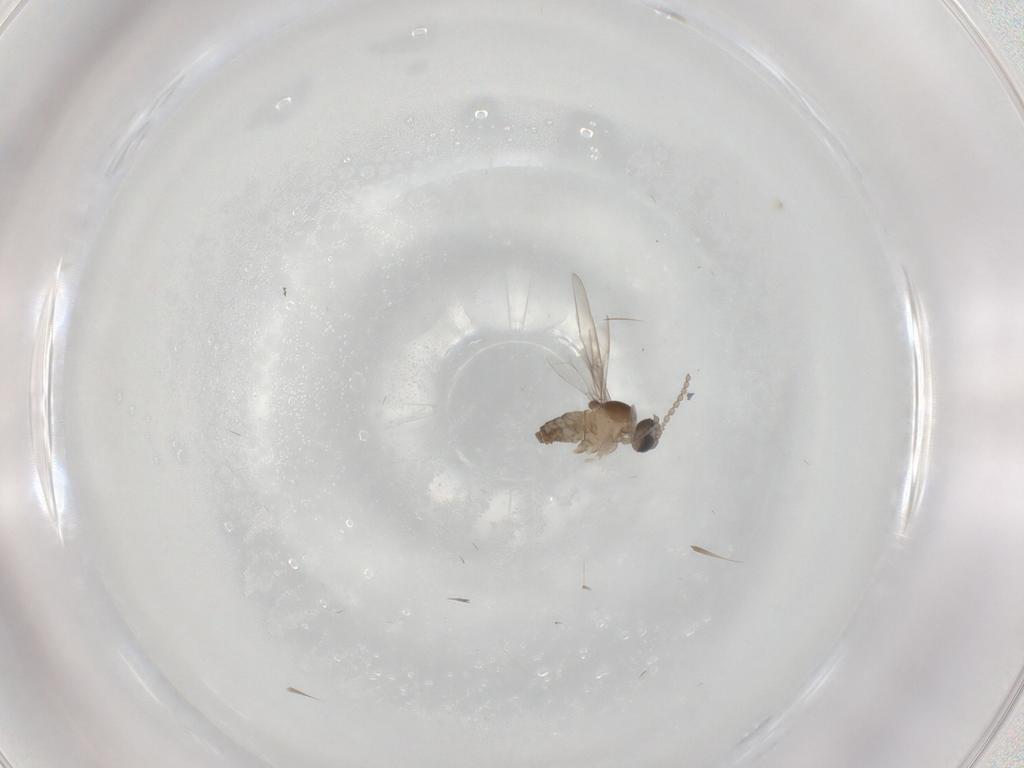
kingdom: Animalia
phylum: Arthropoda
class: Insecta
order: Diptera
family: Cecidomyiidae
